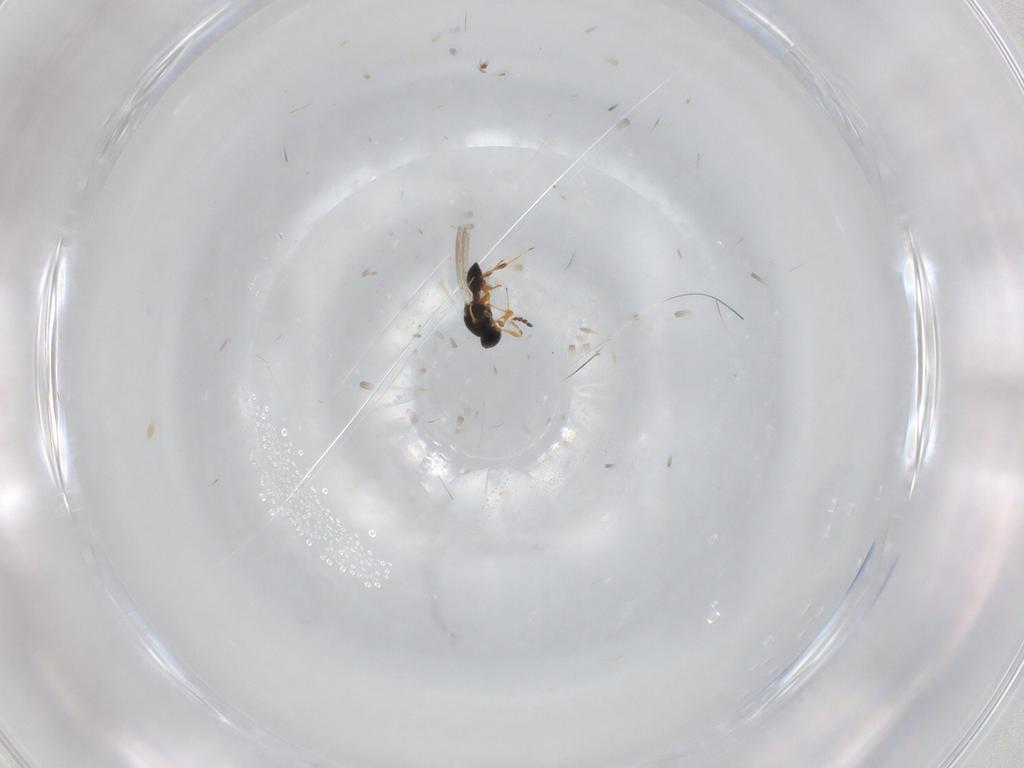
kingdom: Animalia
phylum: Arthropoda
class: Insecta
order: Hymenoptera
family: Platygastridae
